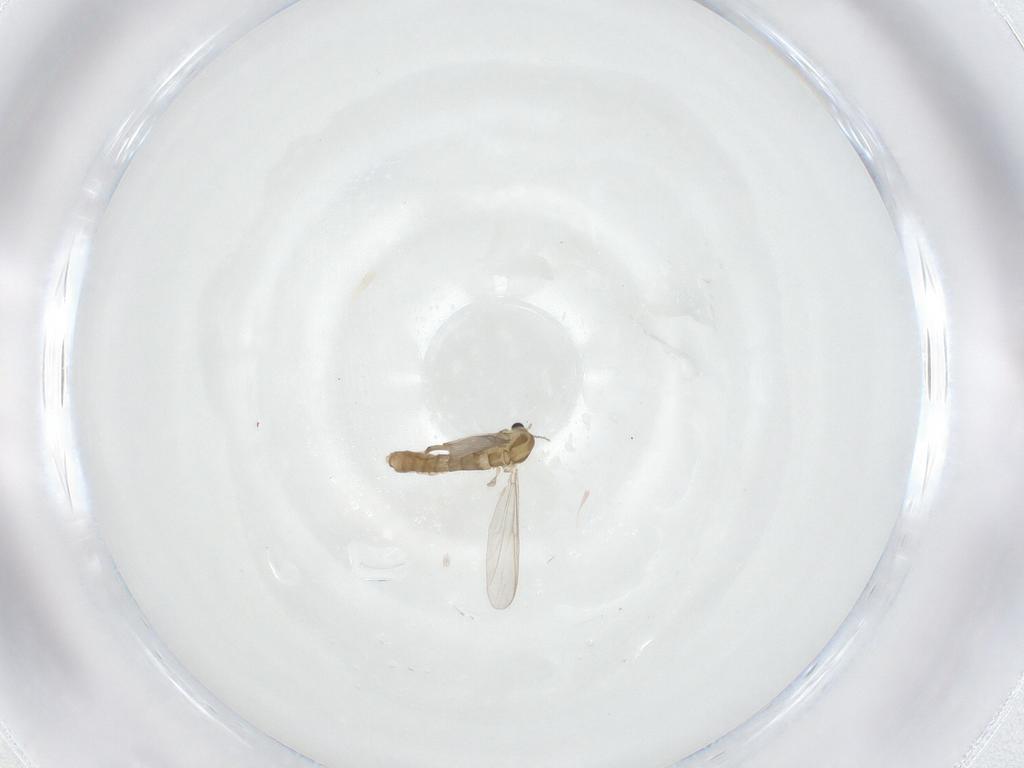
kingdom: Animalia
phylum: Arthropoda
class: Insecta
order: Diptera
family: Chironomidae
